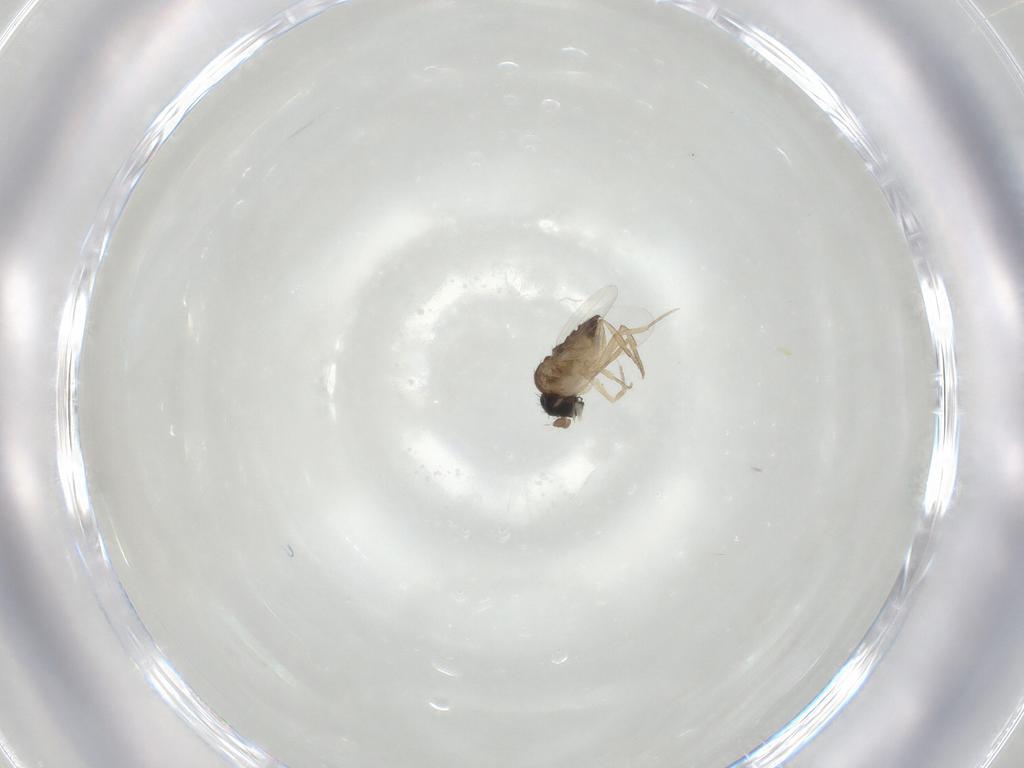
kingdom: Animalia
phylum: Arthropoda
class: Insecta
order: Diptera
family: Phoridae
